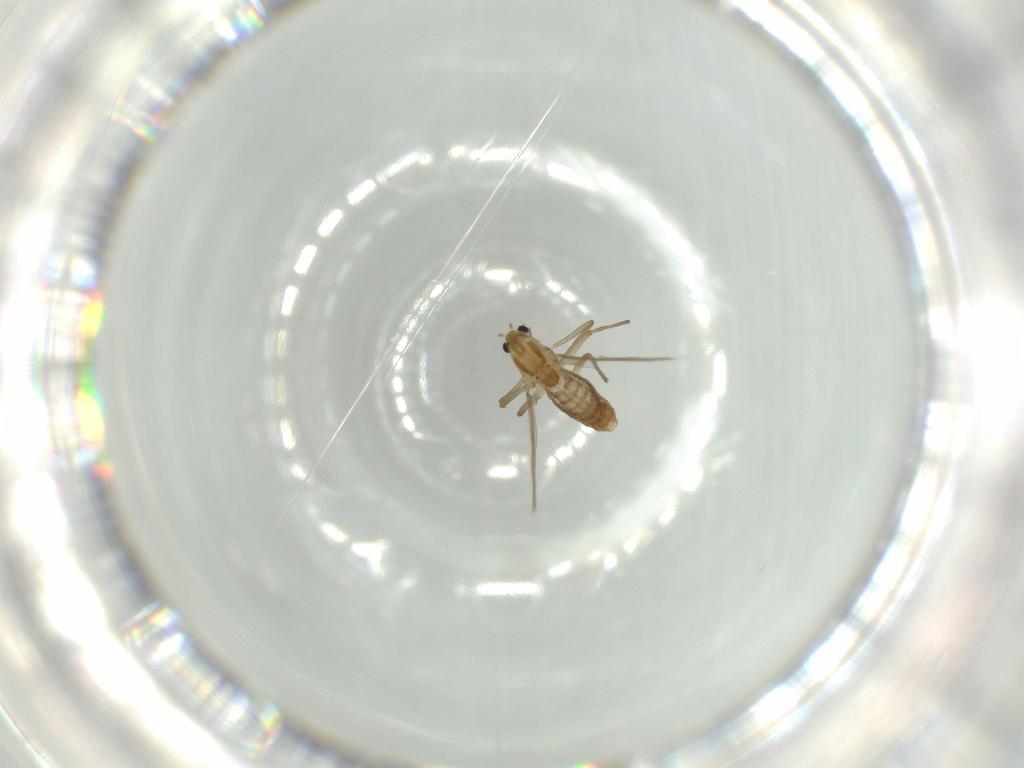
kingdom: Animalia
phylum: Arthropoda
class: Insecta
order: Diptera
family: Chironomidae
